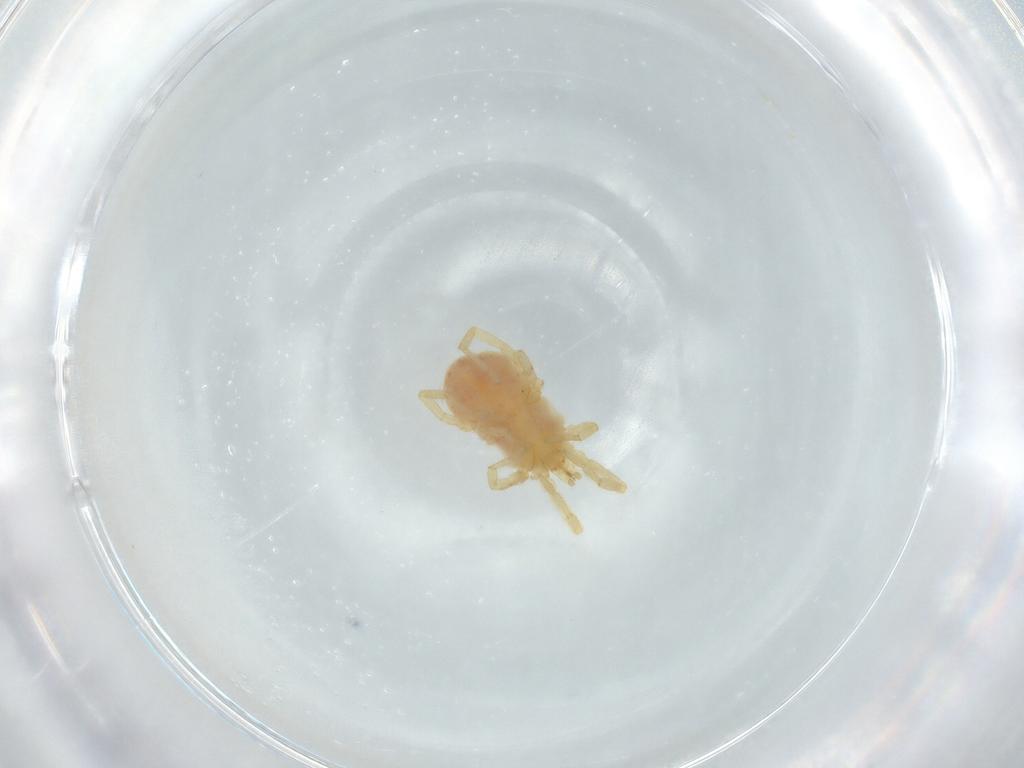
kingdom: Animalia
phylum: Arthropoda
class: Arachnida
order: Trombidiformes
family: Erythraeidae
